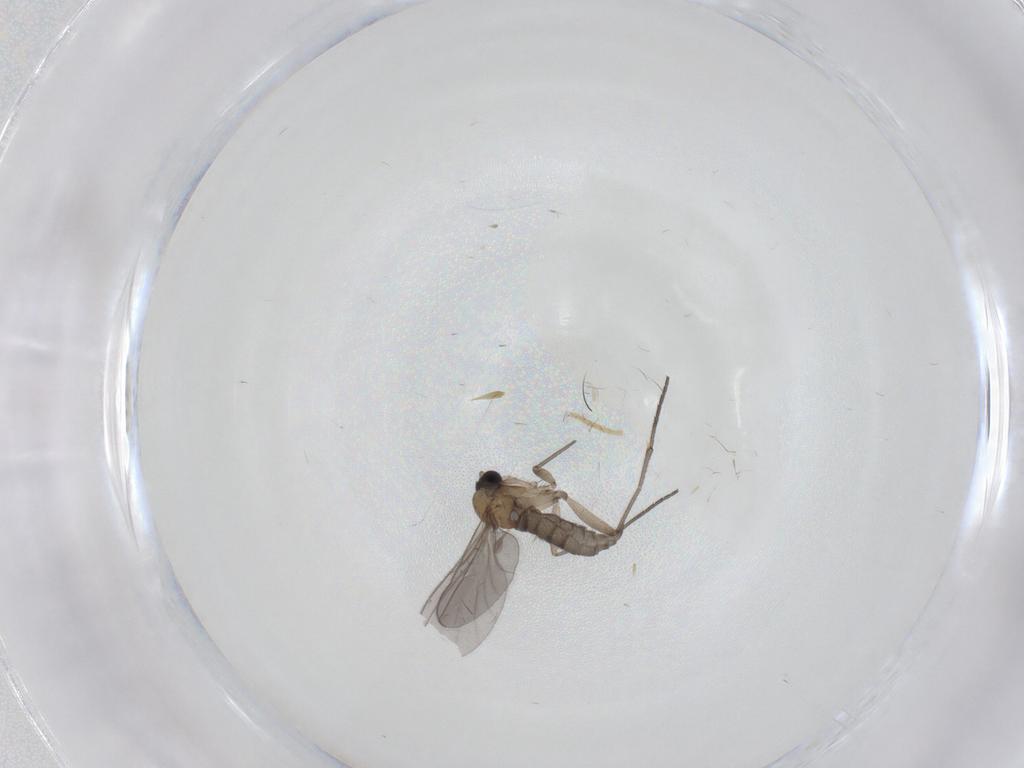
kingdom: Animalia
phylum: Arthropoda
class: Insecta
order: Diptera
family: Sciaridae
